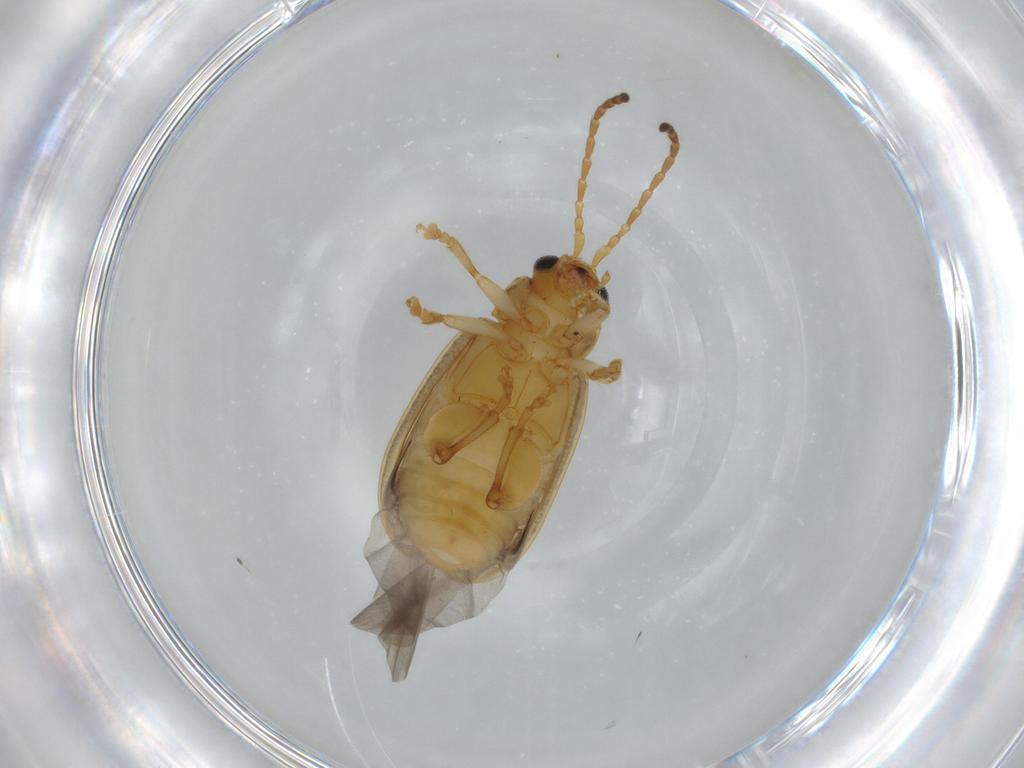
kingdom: Animalia
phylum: Arthropoda
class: Insecta
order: Coleoptera
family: Chrysomelidae
